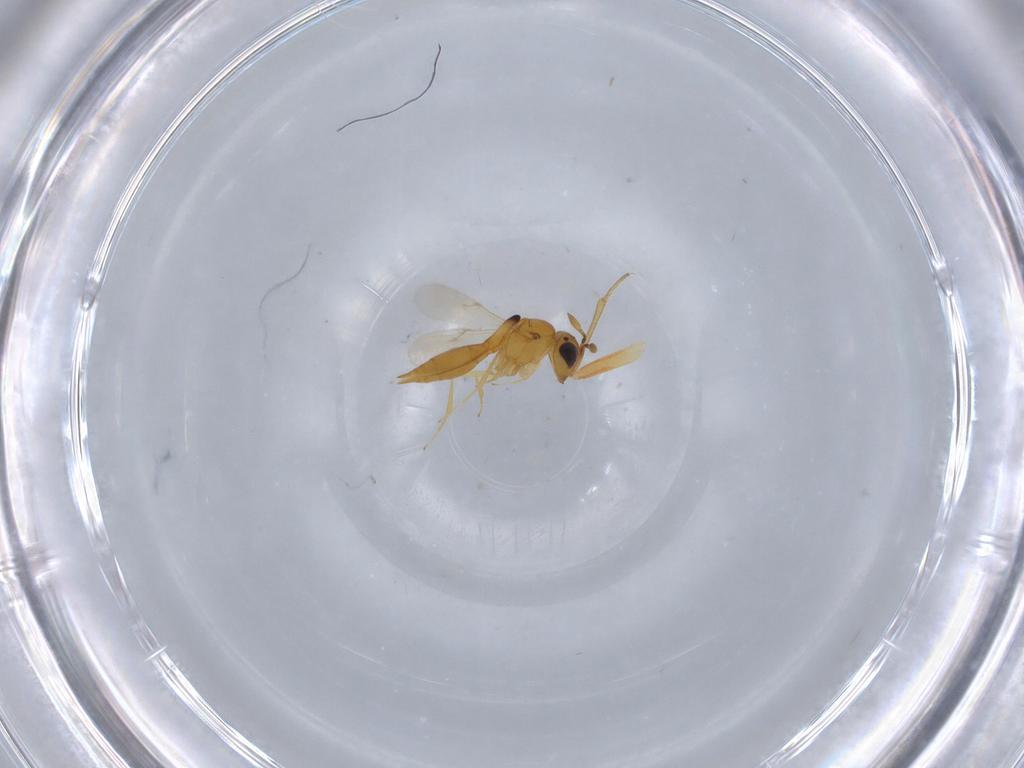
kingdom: Animalia
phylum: Arthropoda
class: Insecta
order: Hymenoptera
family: Scelionidae
